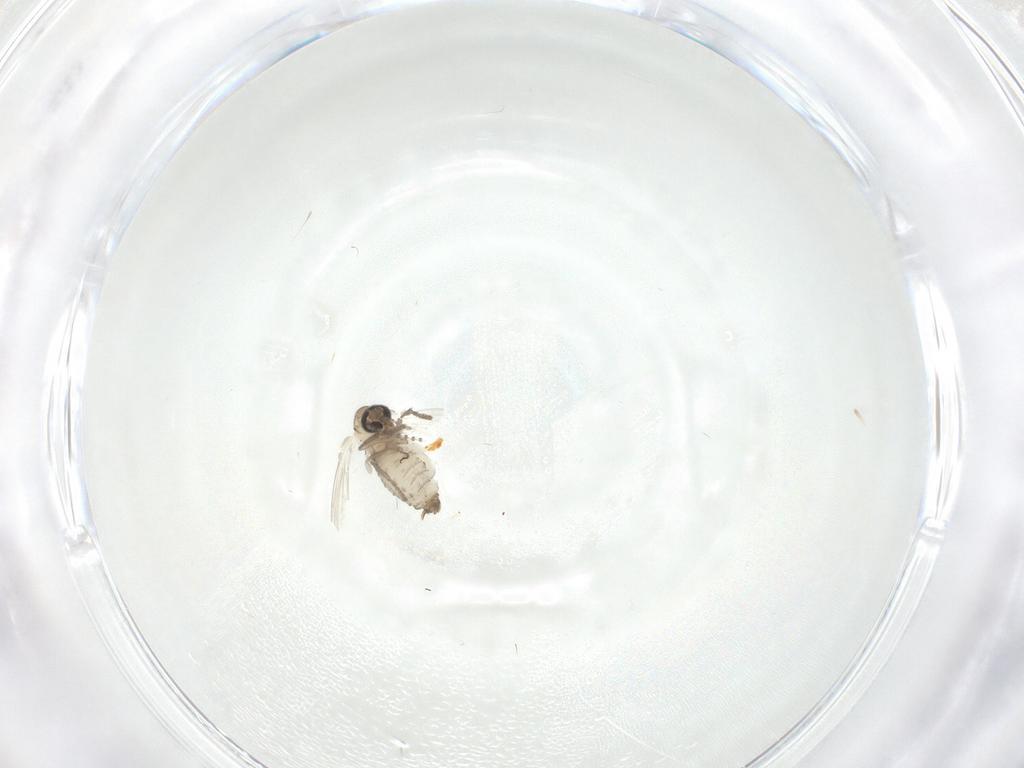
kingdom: Animalia
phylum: Arthropoda
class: Insecta
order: Diptera
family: Psychodidae
